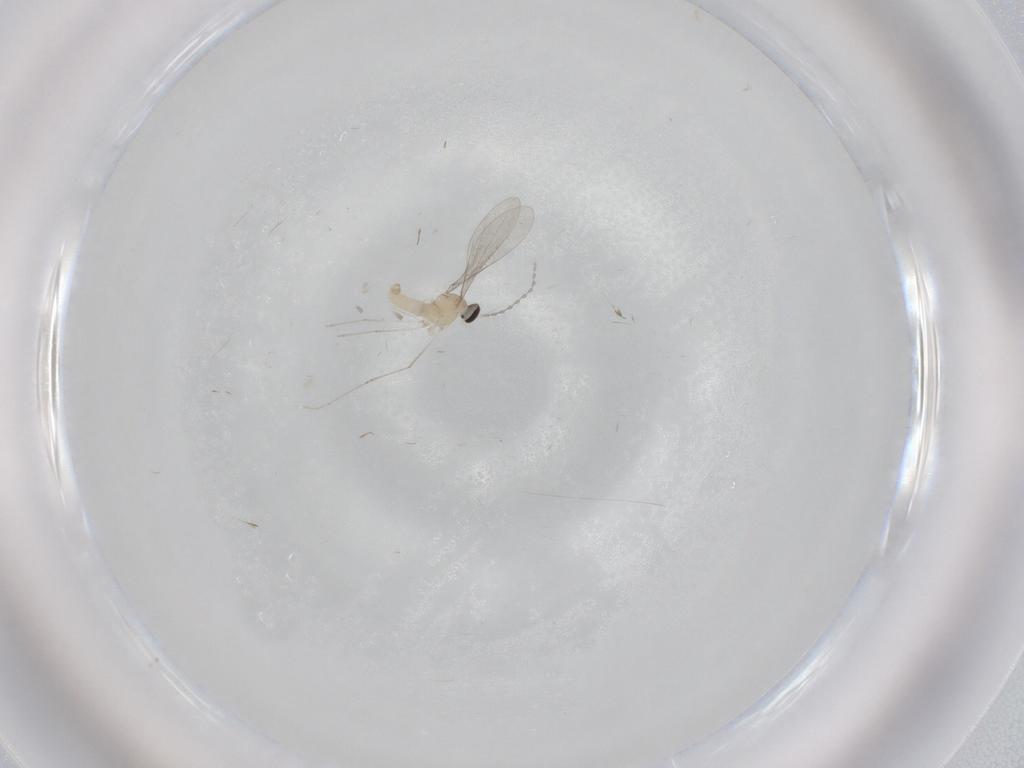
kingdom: Animalia
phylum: Arthropoda
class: Insecta
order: Diptera
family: Cecidomyiidae
